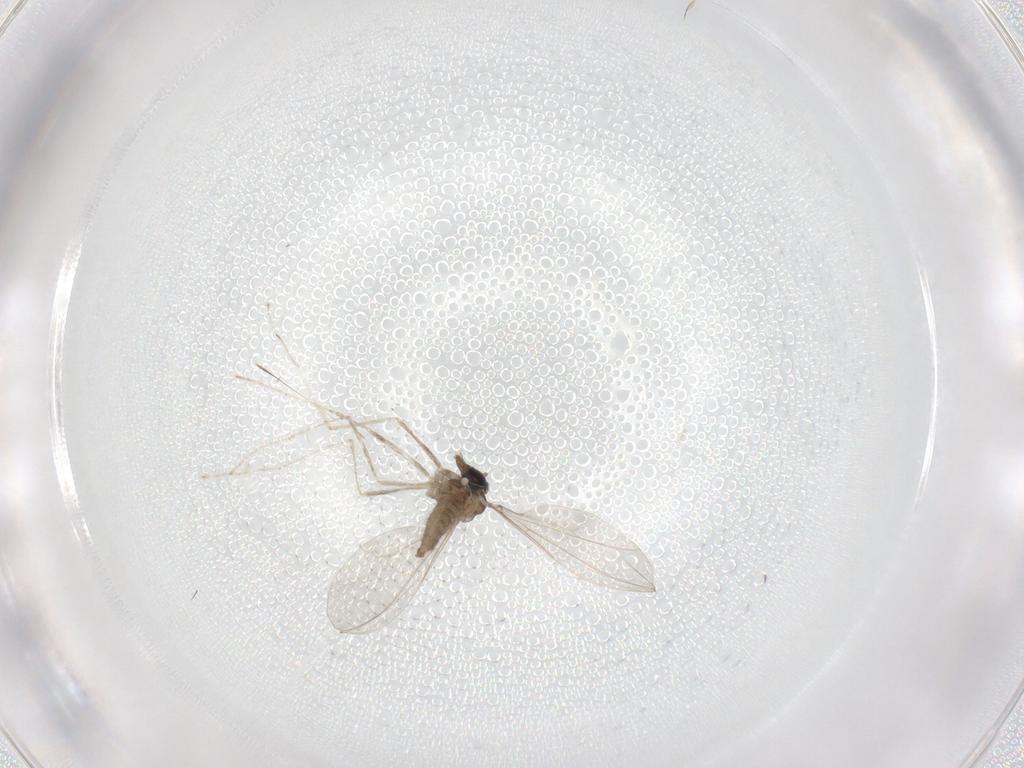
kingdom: Animalia
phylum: Arthropoda
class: Insecta
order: Diptera
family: Cecidomyiidae
